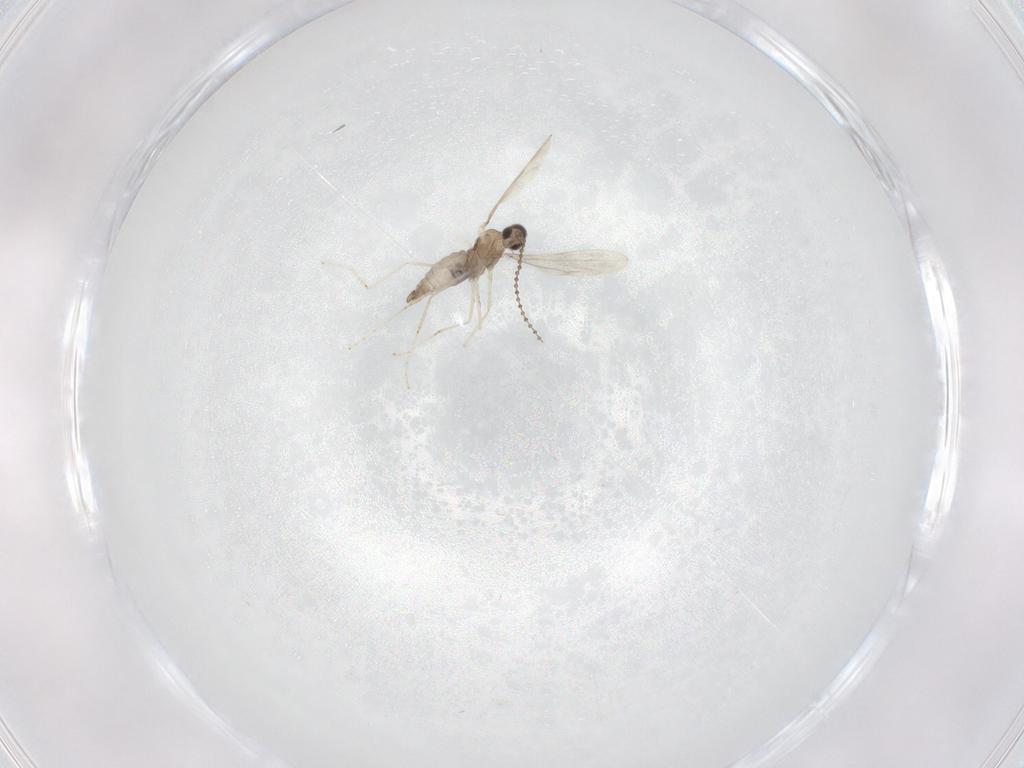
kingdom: Animalia
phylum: Arthropoda
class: Insecta
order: Diptera
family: Cecidomyiidae
